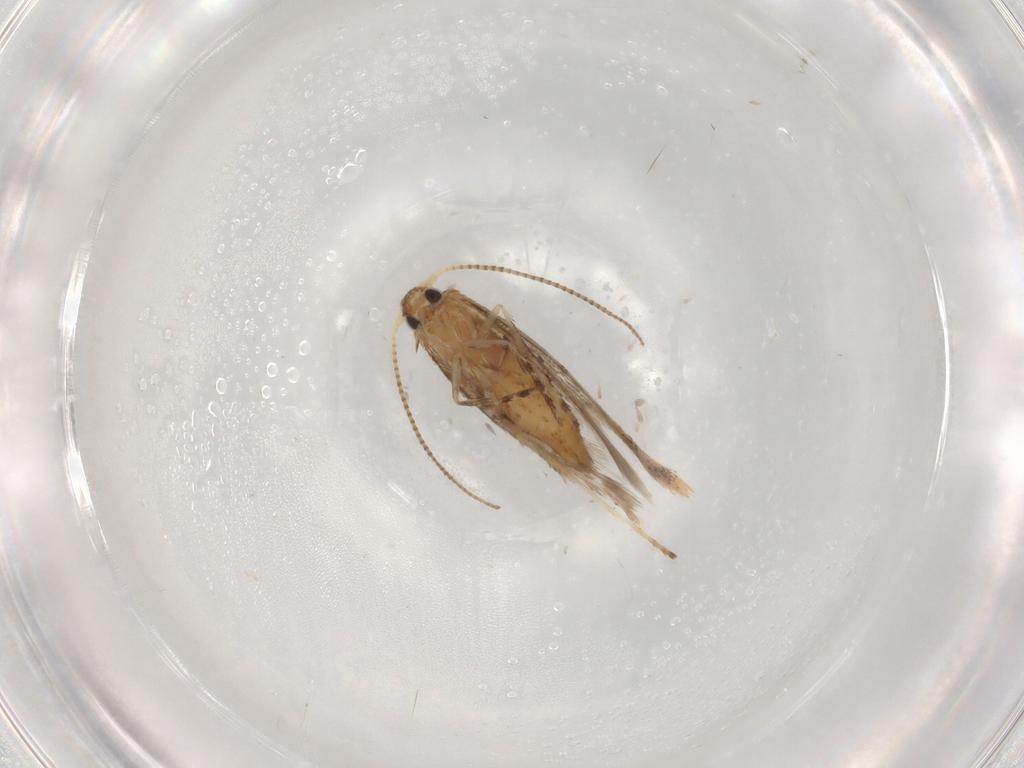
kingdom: Animalia
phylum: Arthropoda
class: Insecta
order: Lepidoptera
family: Gracillariidae
